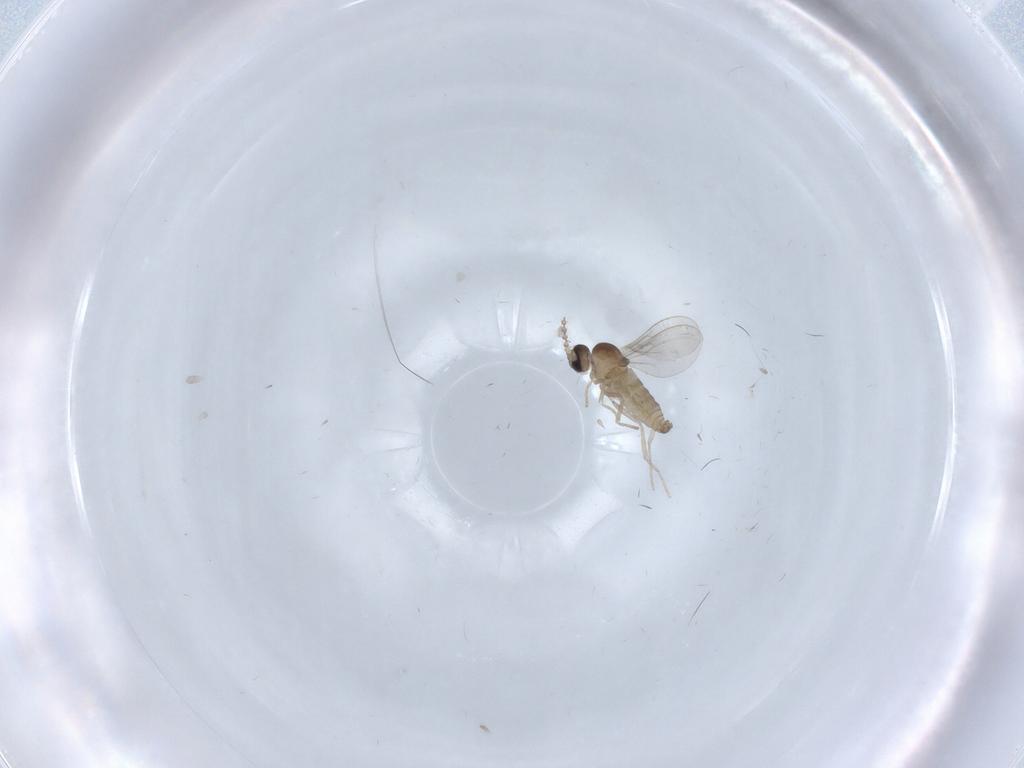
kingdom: Animalia
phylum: Arthropoda
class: Insecta
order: Diptera
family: Cecidomyiidae
